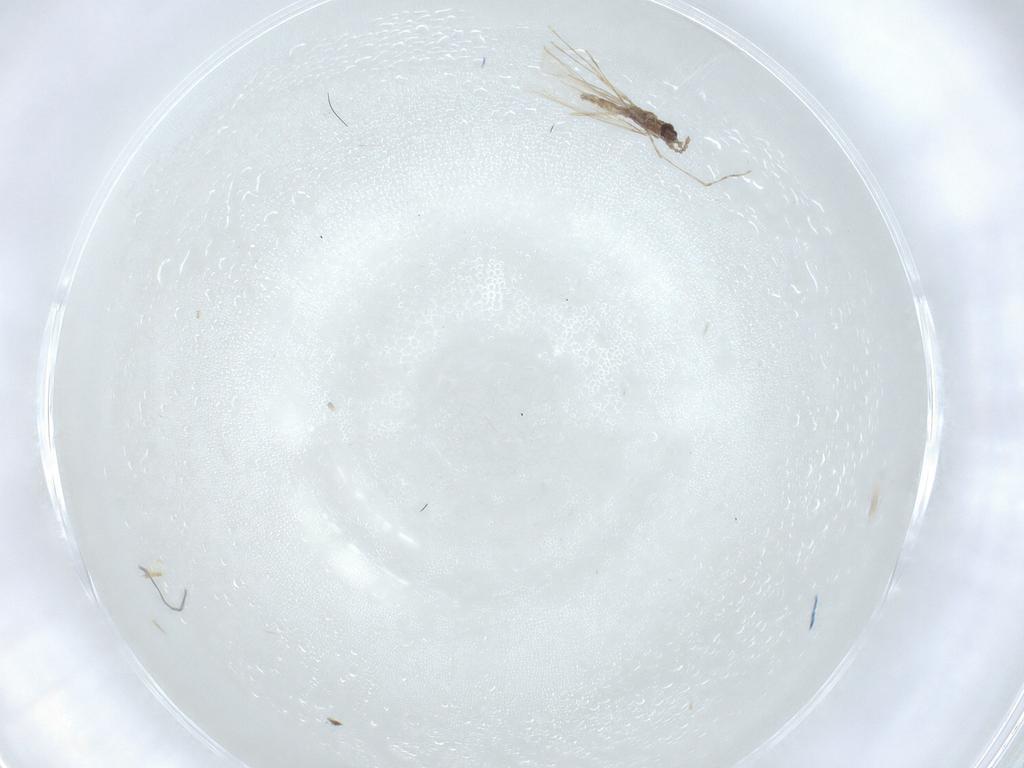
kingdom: Animalia
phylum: Arthropoda
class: Insecta
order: Diptera
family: Cecidomyiidae
